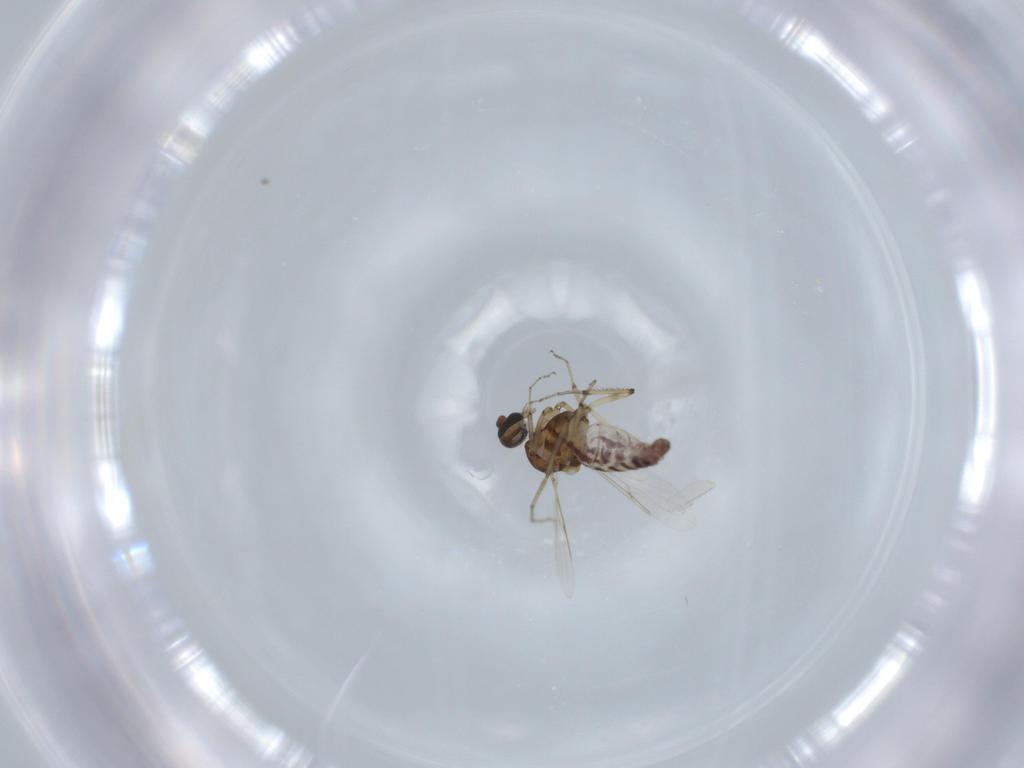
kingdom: Animalia
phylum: Arthropoda
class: Insecta
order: Diptera
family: Ceratopogonidae
